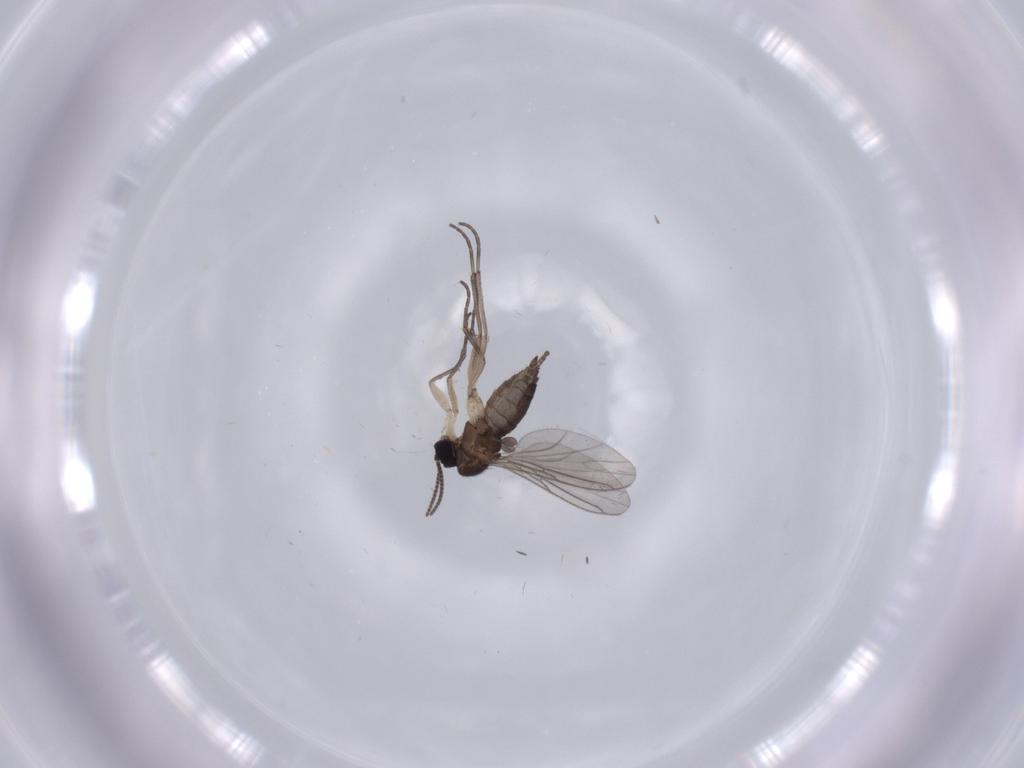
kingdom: Animalia
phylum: Arthropoda
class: Insecta
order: Diptera
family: Sciaridae
